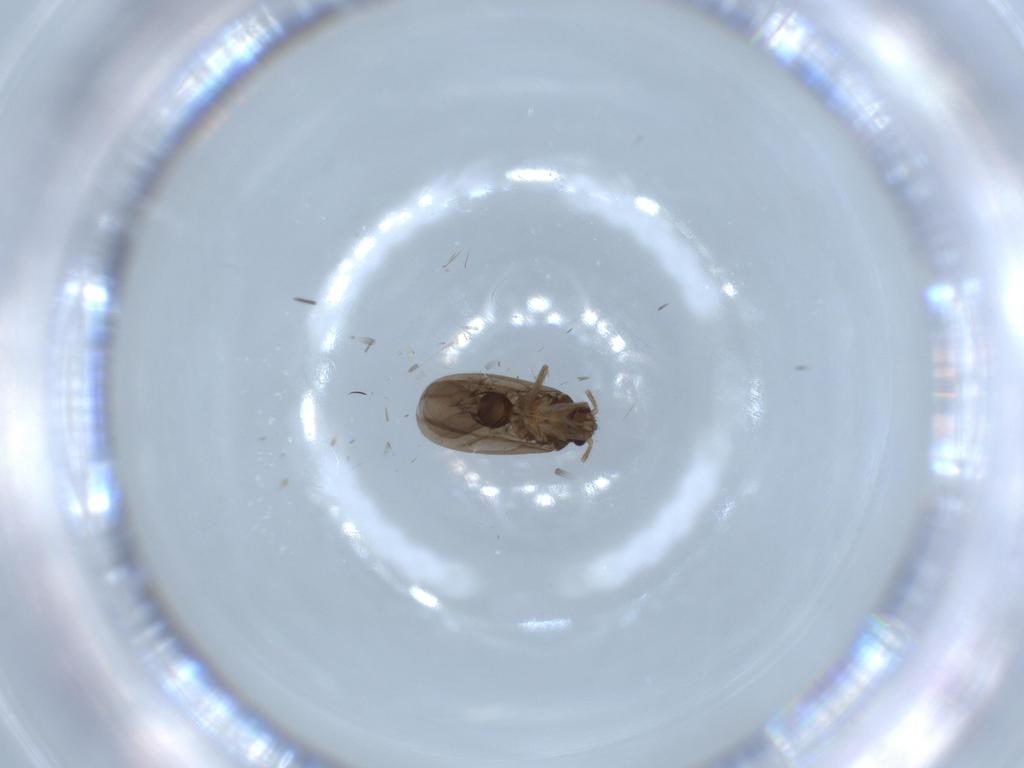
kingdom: Animalia
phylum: Arthropoda
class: Insecta
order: Hemiptera
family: Ceratocombidae
